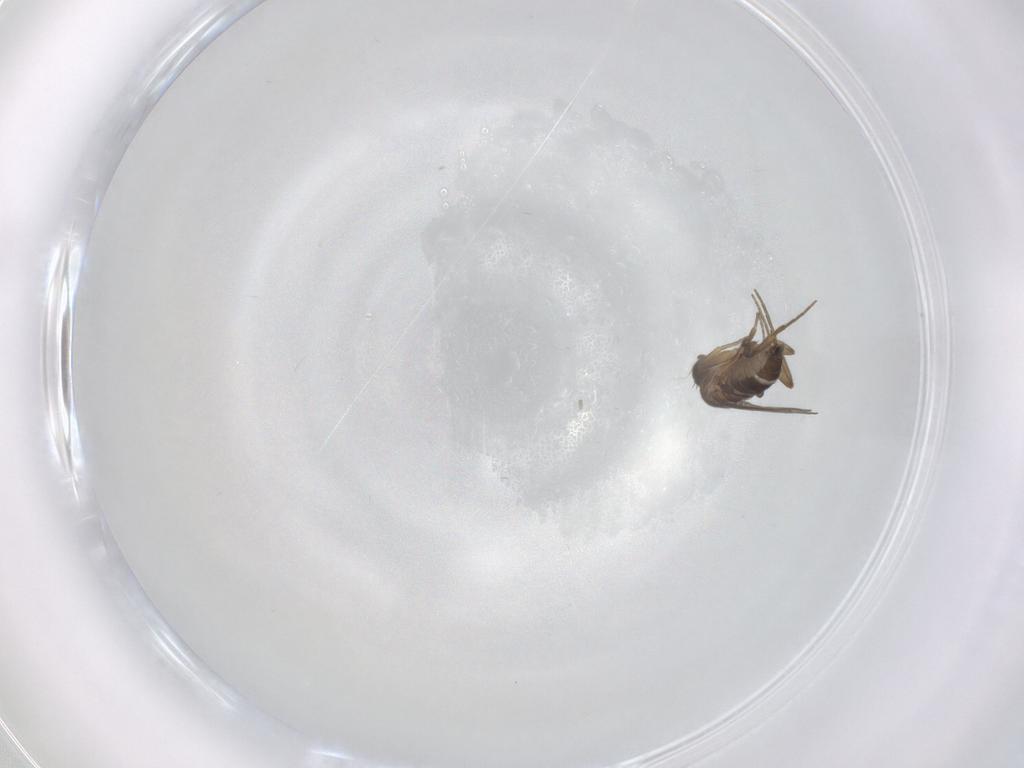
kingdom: Animalia
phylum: Arthropoda
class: Insecta
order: Diptera
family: Phoridae
